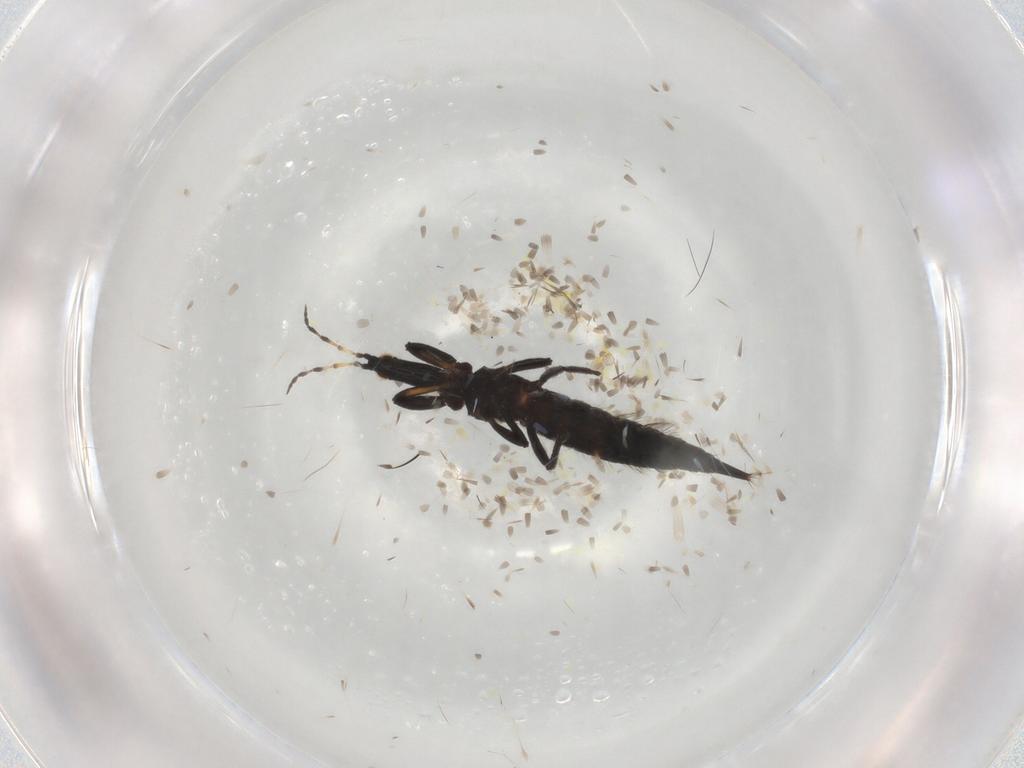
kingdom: Animalia
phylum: Arthropoda
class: Insecta
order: Thysanoptera
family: Phlaeothripidae
